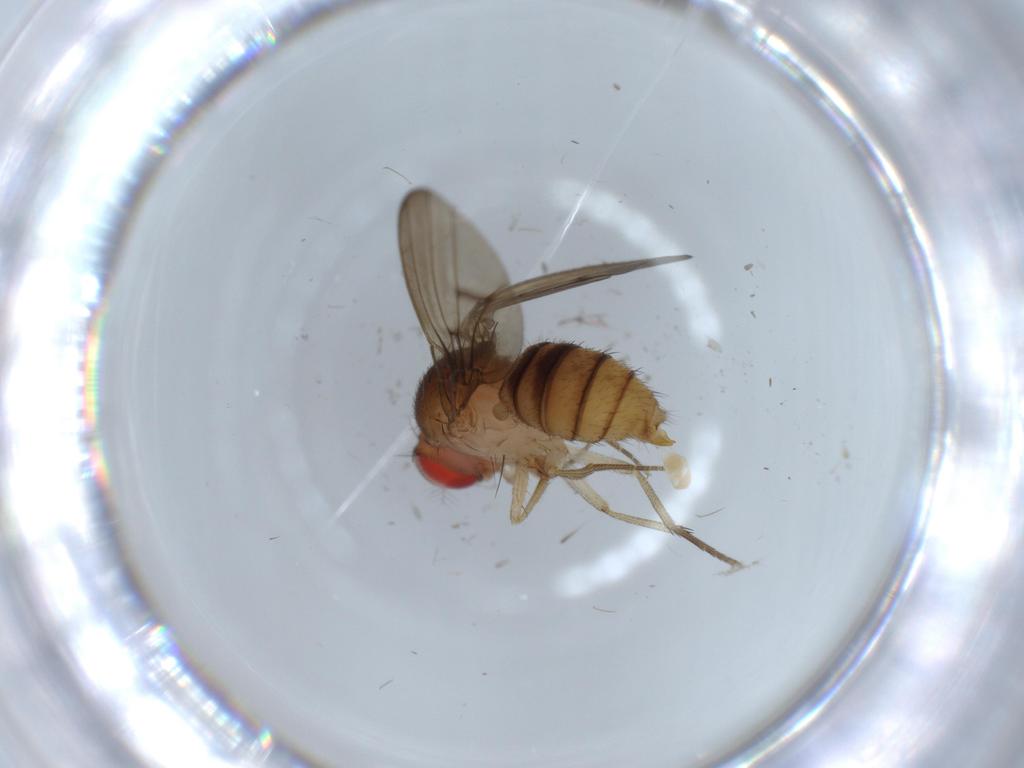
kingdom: Animalia
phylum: Arthropoda
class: Insecta
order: Diptera
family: Drosophilidae
